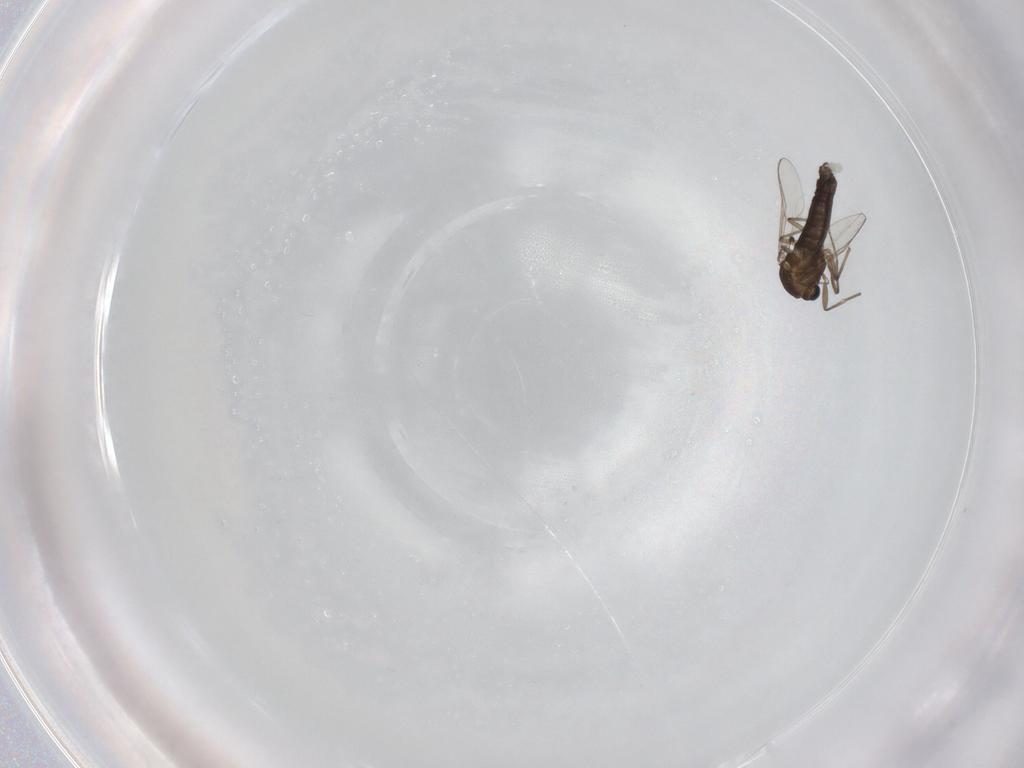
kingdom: Animalia
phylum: Arthropoda
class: Insecta
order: Diptera
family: Chironomidae
